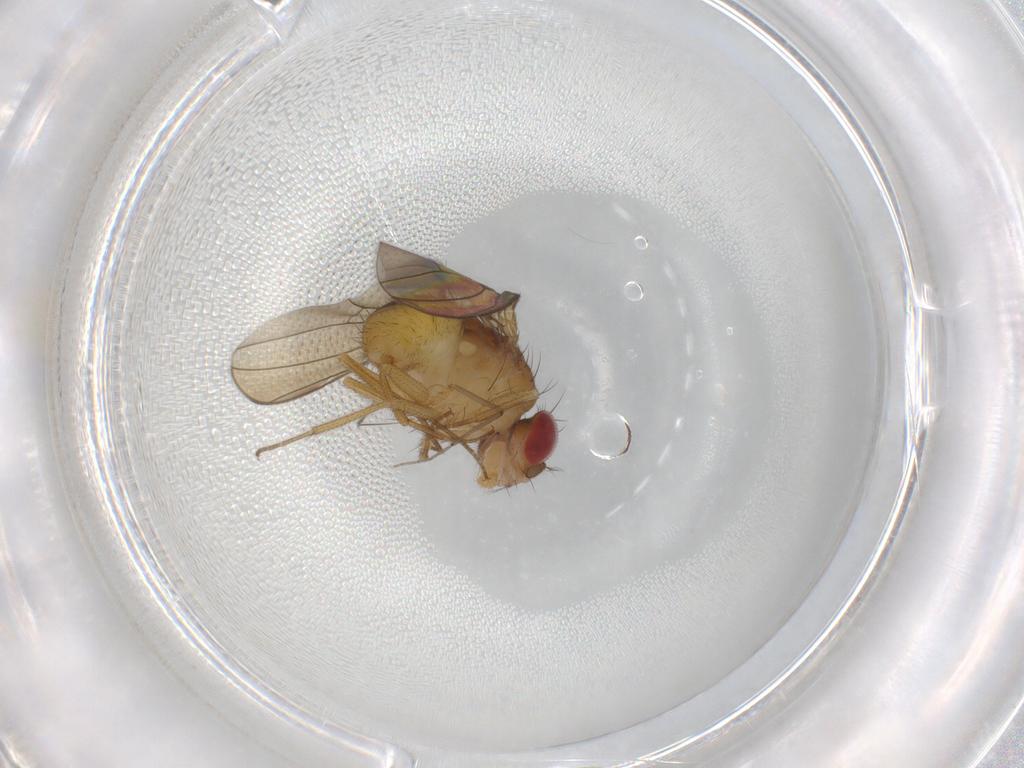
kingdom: Animalia
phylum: Arthropoda
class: Insecta
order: Diptera
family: Drosophilidae
